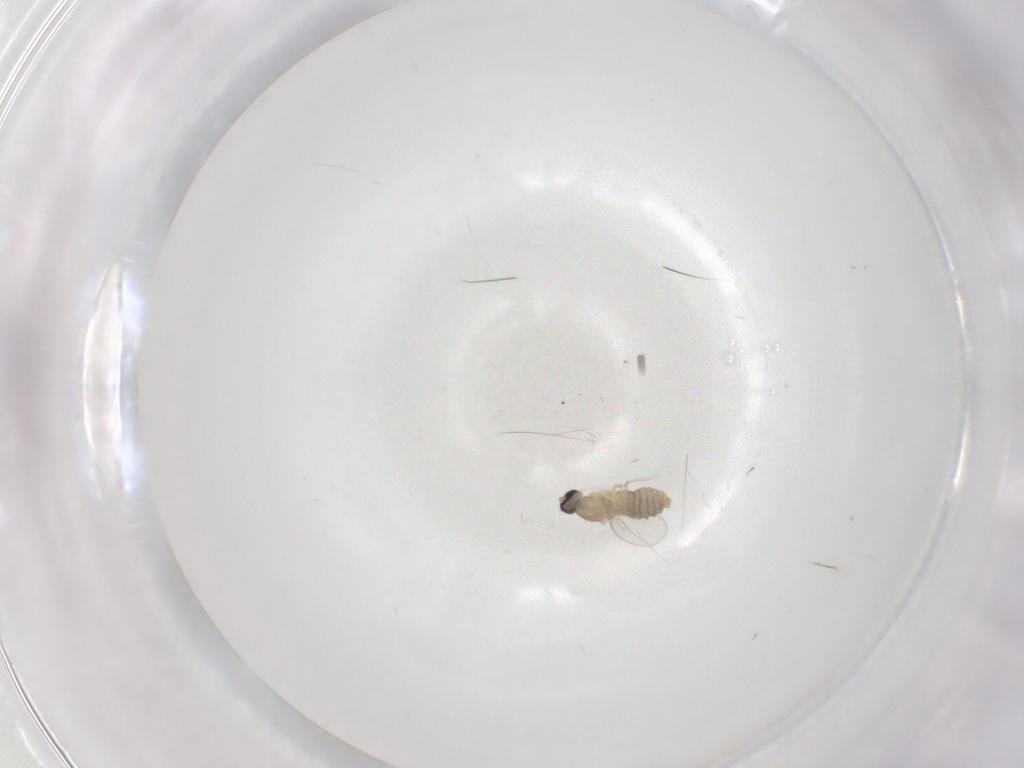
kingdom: Animalia
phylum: Arthropoda
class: Insecta
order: Diptera
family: Cecidomyiidae
